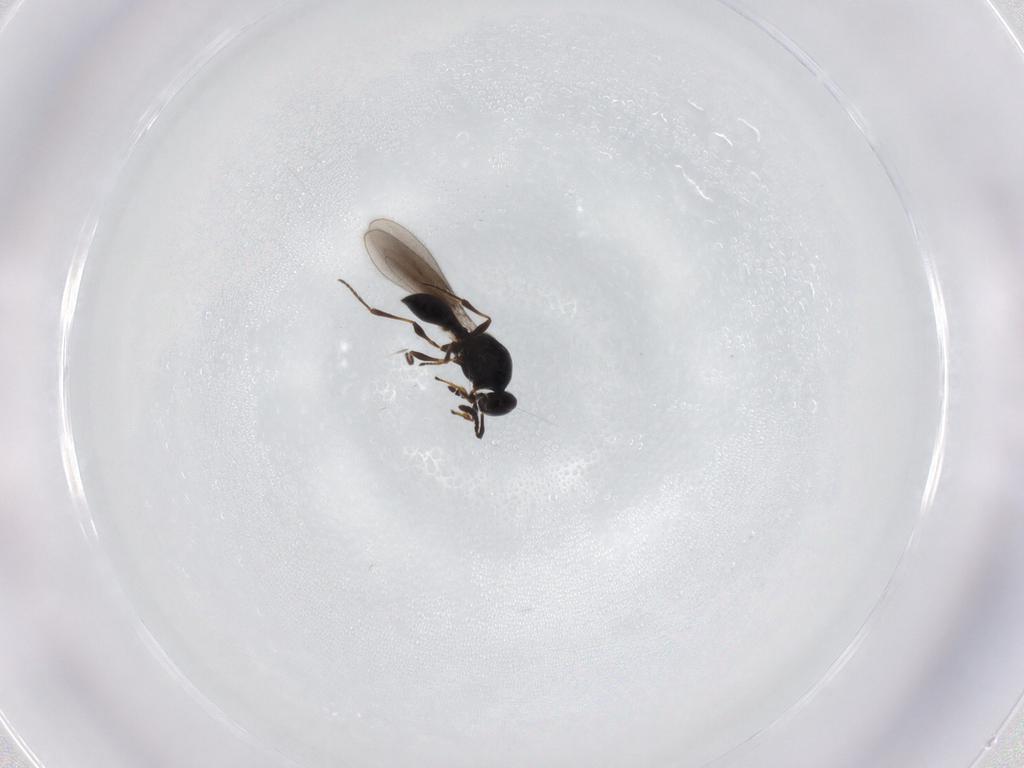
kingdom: Animalia
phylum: Arthropoda
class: Insecta
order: Hymenoptera
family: Platygastridae
